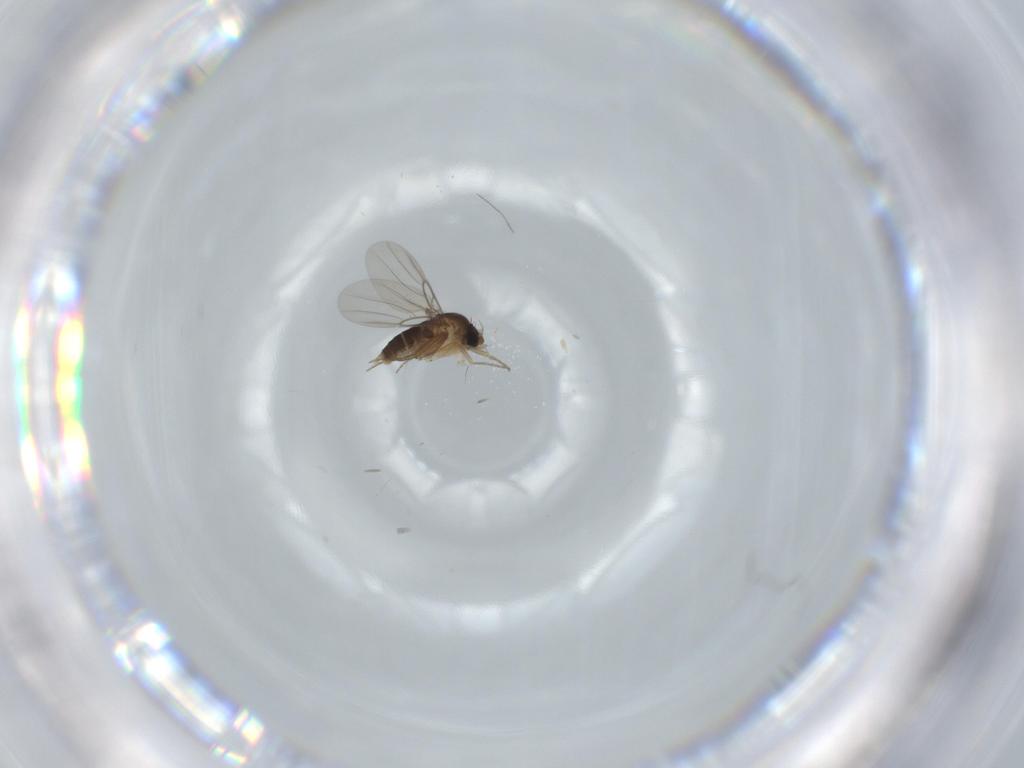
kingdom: Animalia
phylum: Arthropoda
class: Insecta
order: Diptera
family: Dolichopodidae
